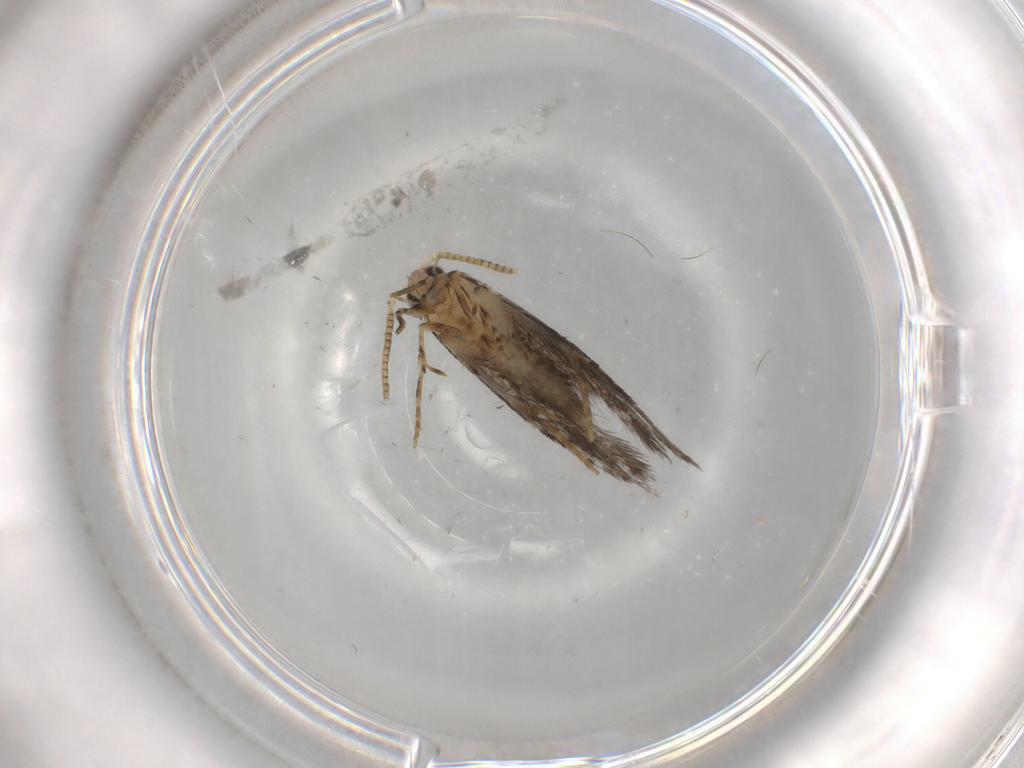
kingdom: Animalia
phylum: Arthropoda
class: Insecta
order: Lepidoptera
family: Tineidae
